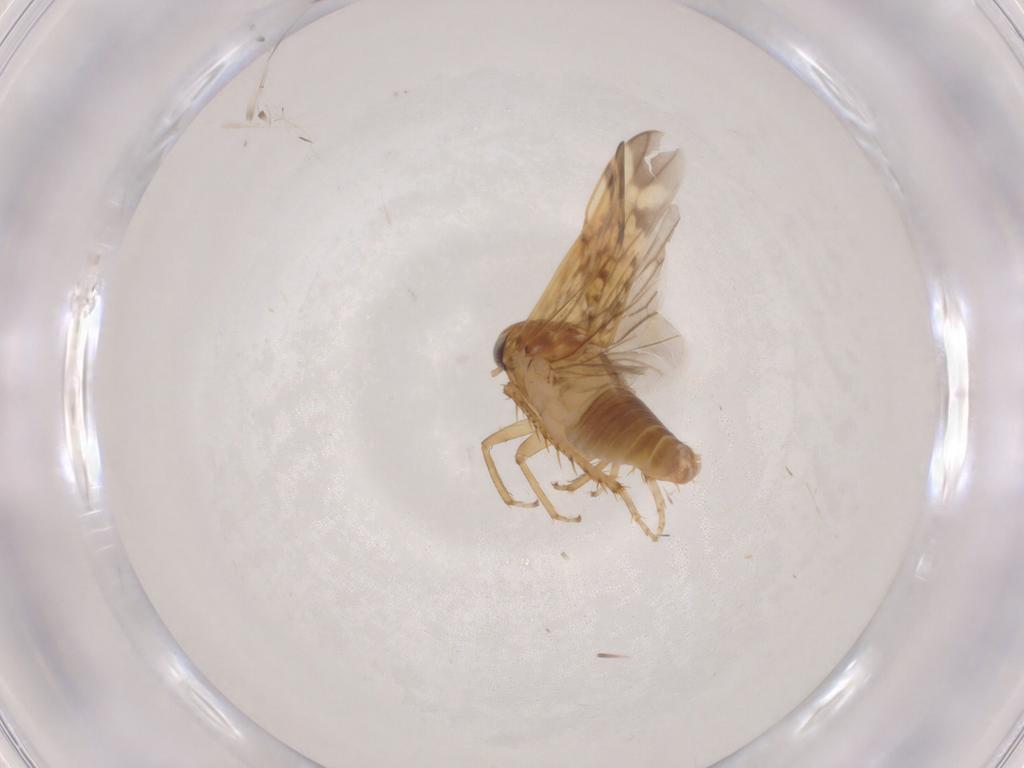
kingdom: Animalia
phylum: Arthropoda
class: Insecta
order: Hemiptera
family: Cicadellidae
